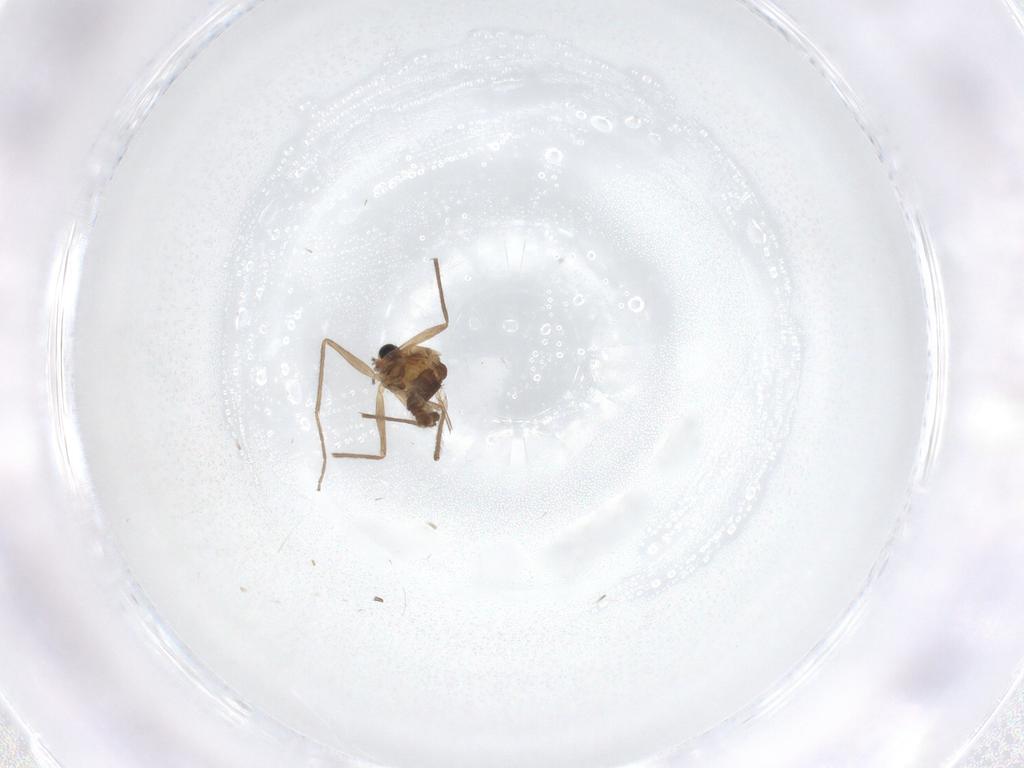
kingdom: Animalia
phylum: Arthropoda
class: Insecta
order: Diptera
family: Chironomidae
